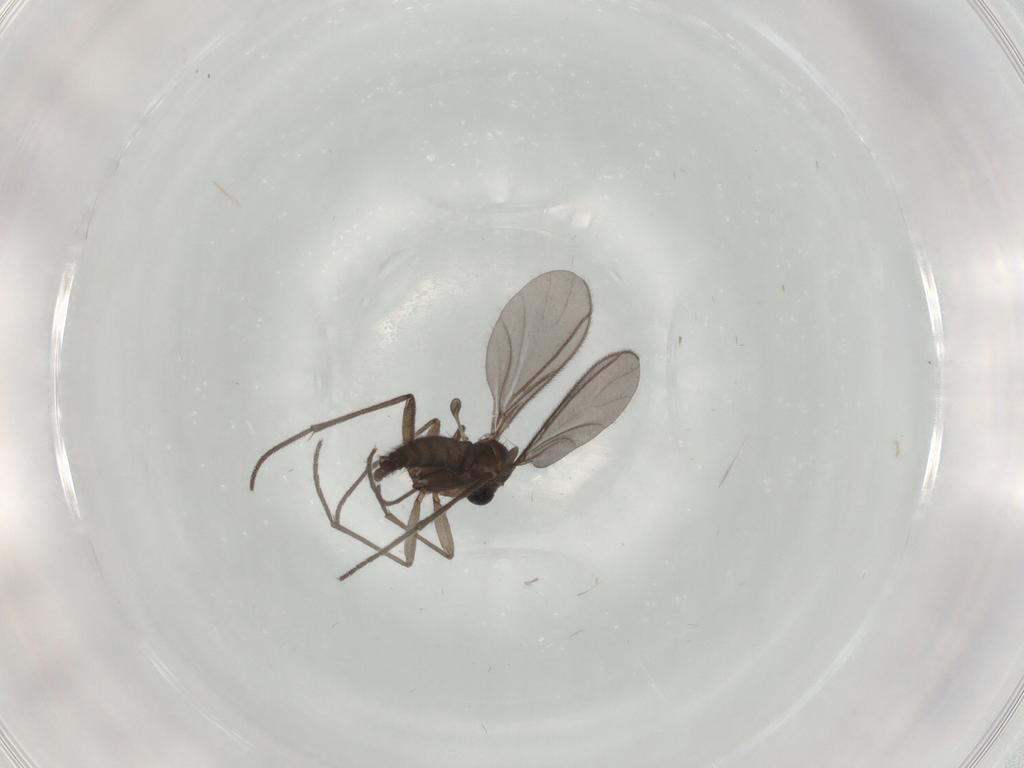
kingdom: Animalia
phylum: Arthropoda
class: Insecta
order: Diptera
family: Sciaridae
